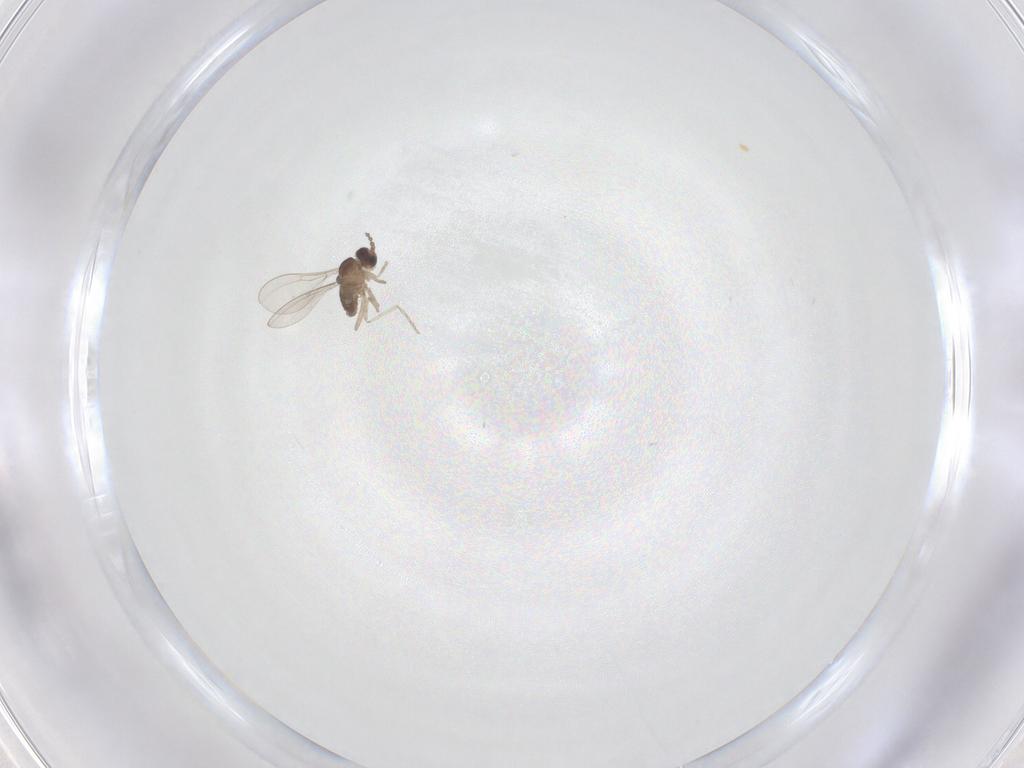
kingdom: Animalia
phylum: Arthropoda
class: Insecta
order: Diptera
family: Cecidomyiidae
